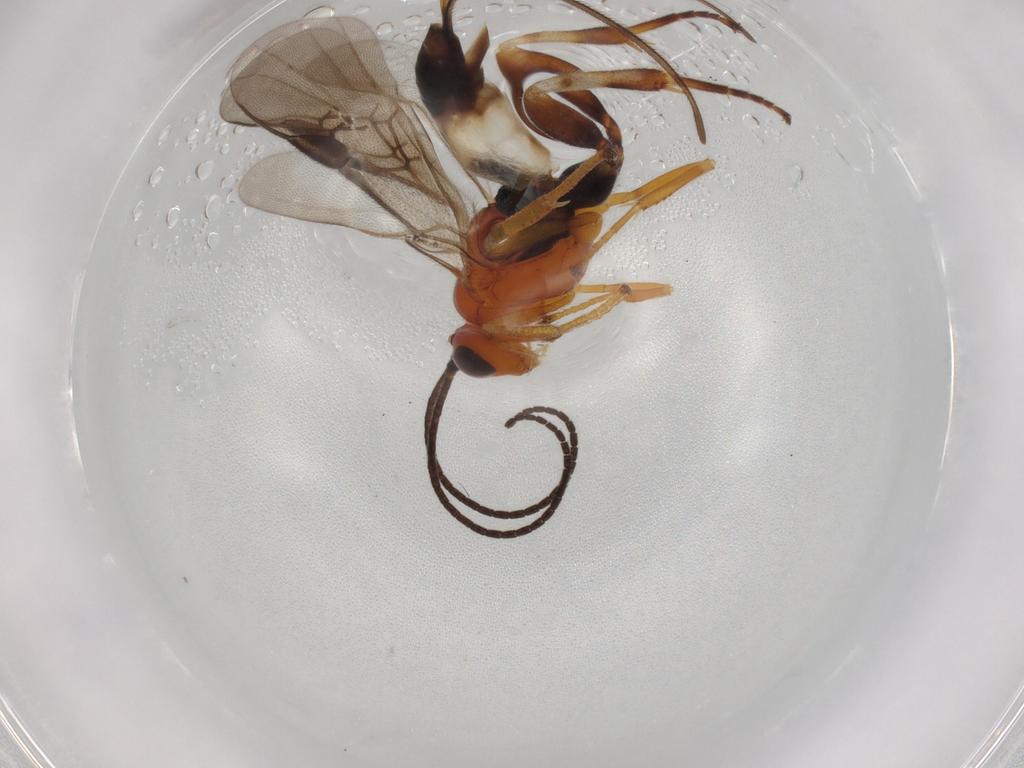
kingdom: Animalia
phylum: Arthropoda
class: Insecta
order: Hymenoptera
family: Braconidae
